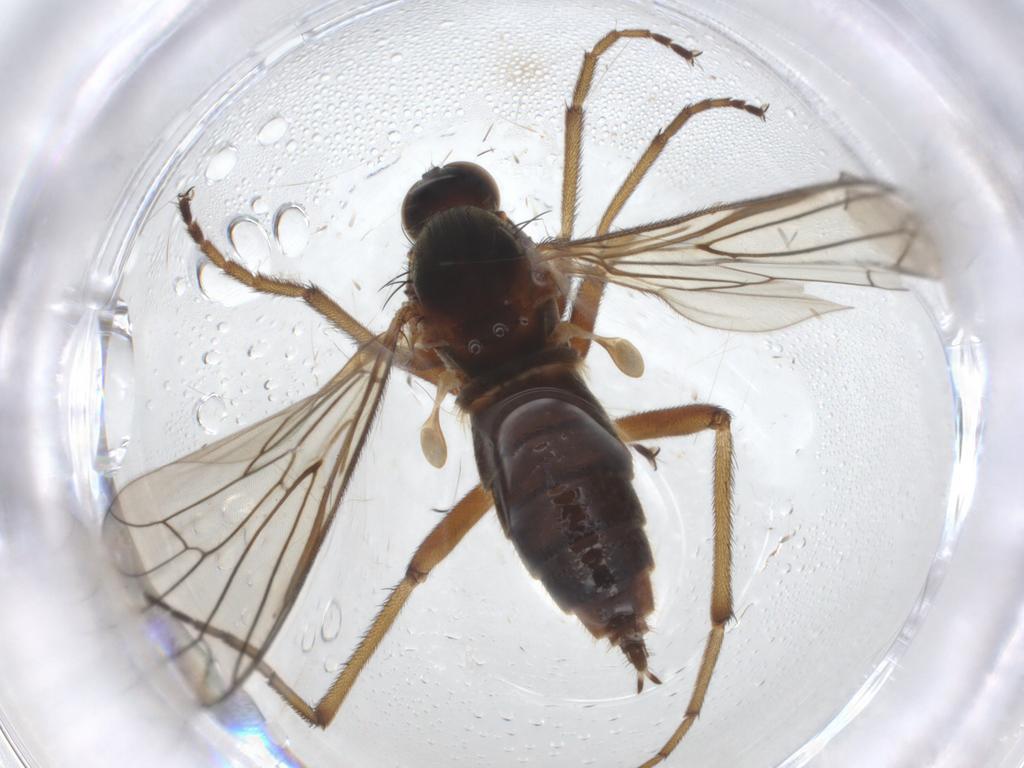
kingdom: Animalia
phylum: Arthropoda
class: Insecta
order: Diptera
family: Empididae
